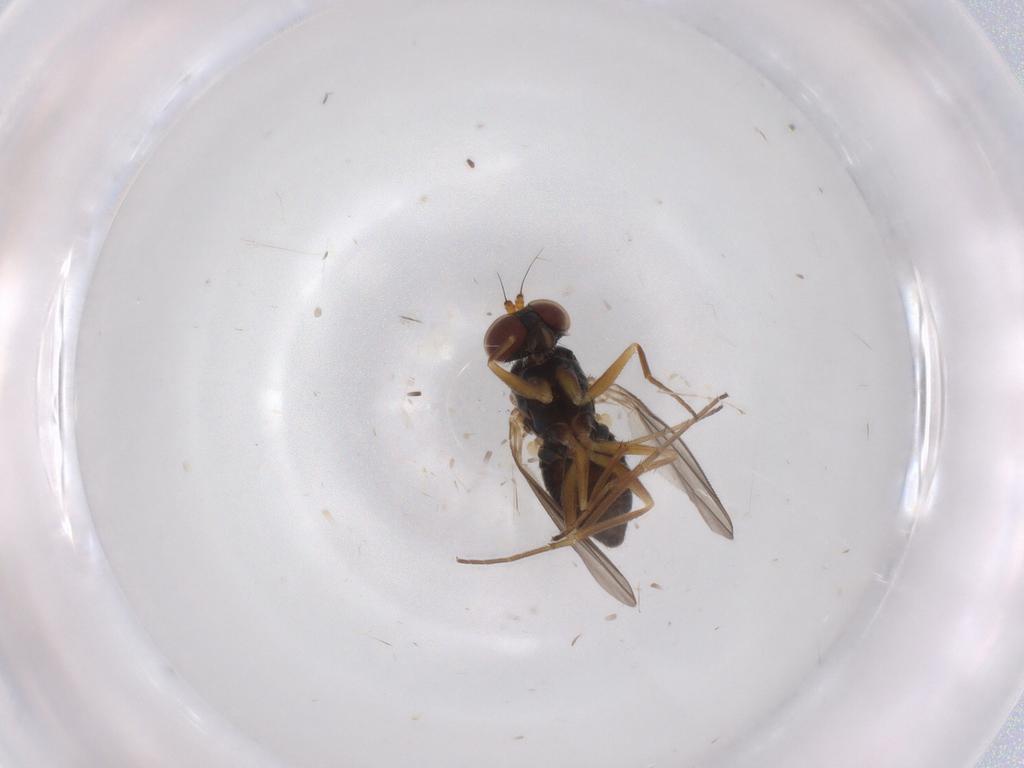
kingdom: Animalia
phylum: Arthropoda
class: Insecta
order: Diptera
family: Dolichopodidae
